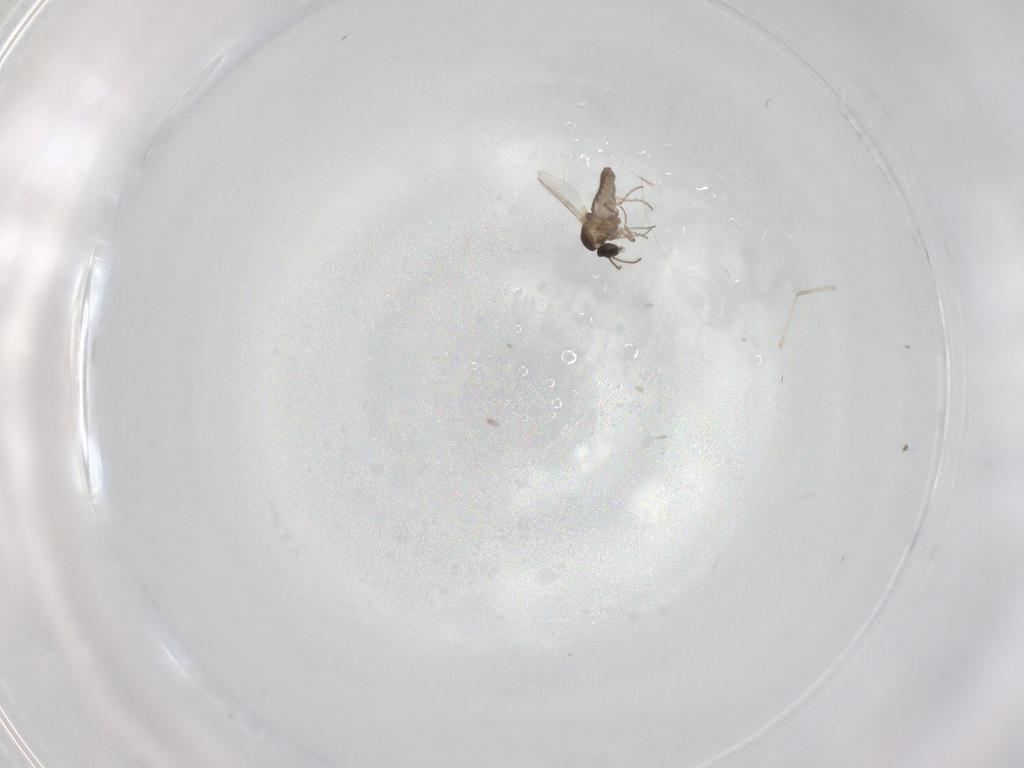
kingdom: Animalia
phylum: Arthropoda
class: Insecta
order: Diptera
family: Ceratopogonidae
